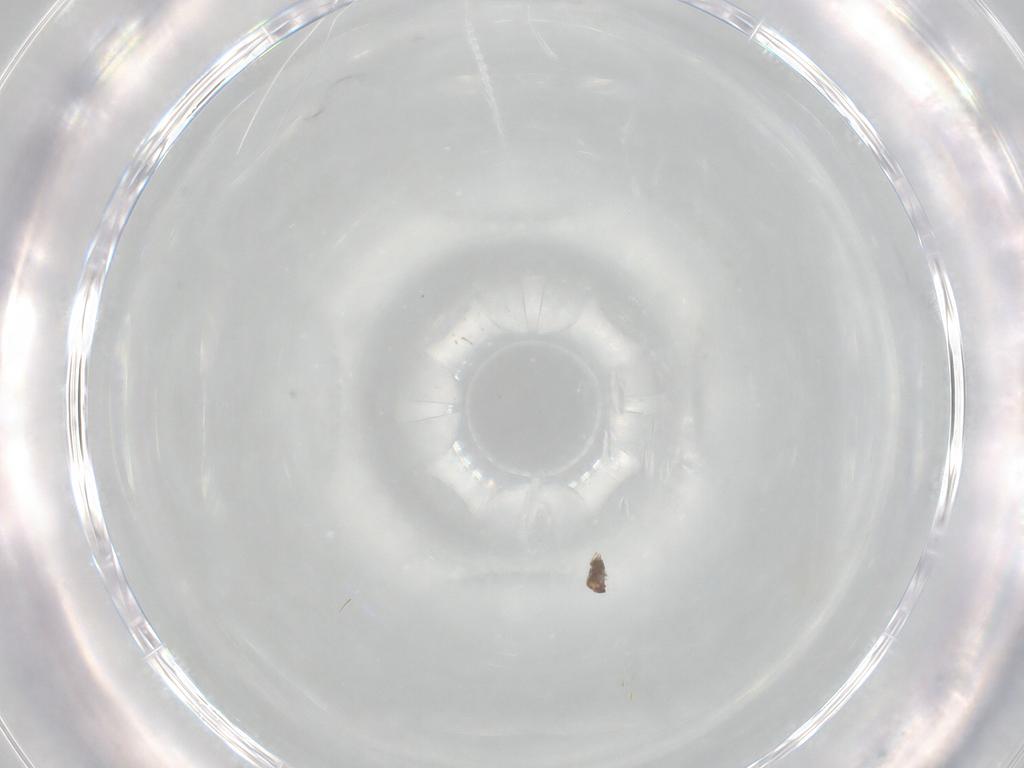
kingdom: Animalia
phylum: Arthropoda
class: Insecta
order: Hymenoptera
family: Trichogrammatidae
